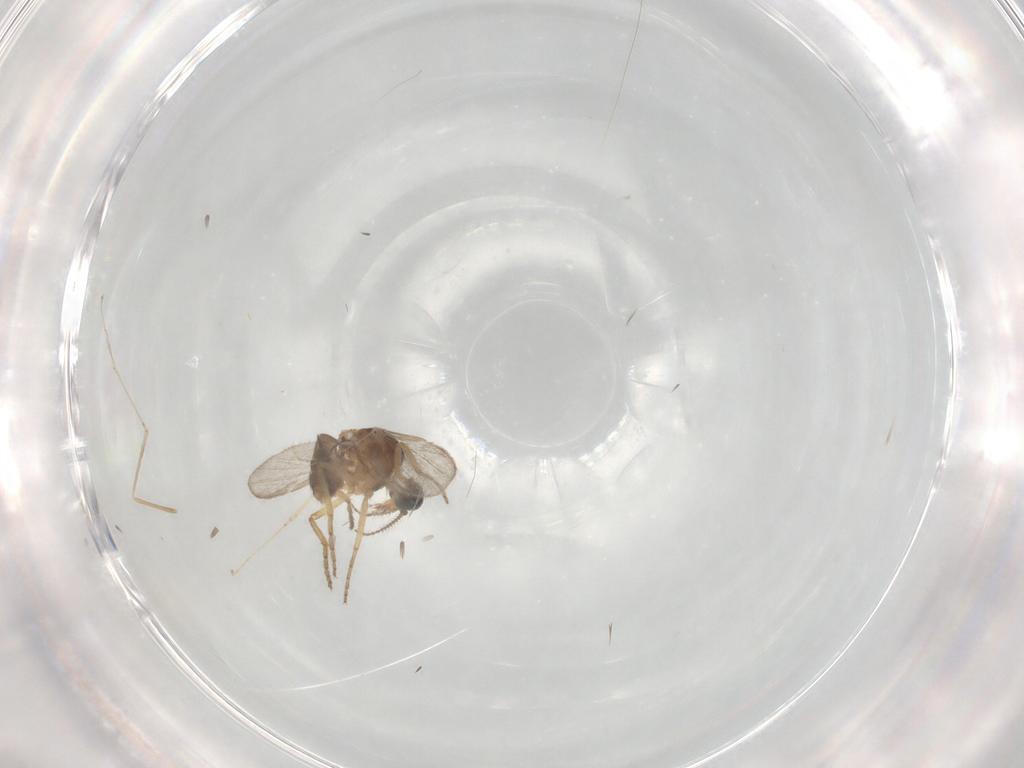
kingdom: Animalia
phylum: Arthropoda
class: Insecta
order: Diptera
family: Ceratopogonidae
